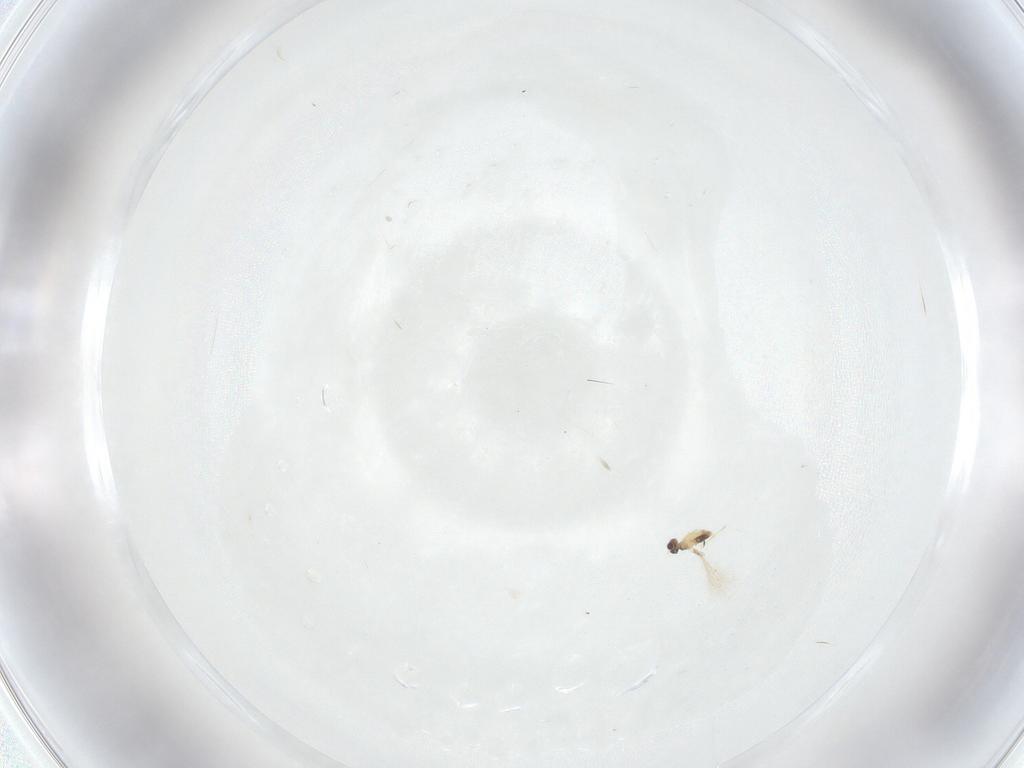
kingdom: Animalia
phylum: Arthropoda
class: Insecta
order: Hymenoptera
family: Mymaridae
